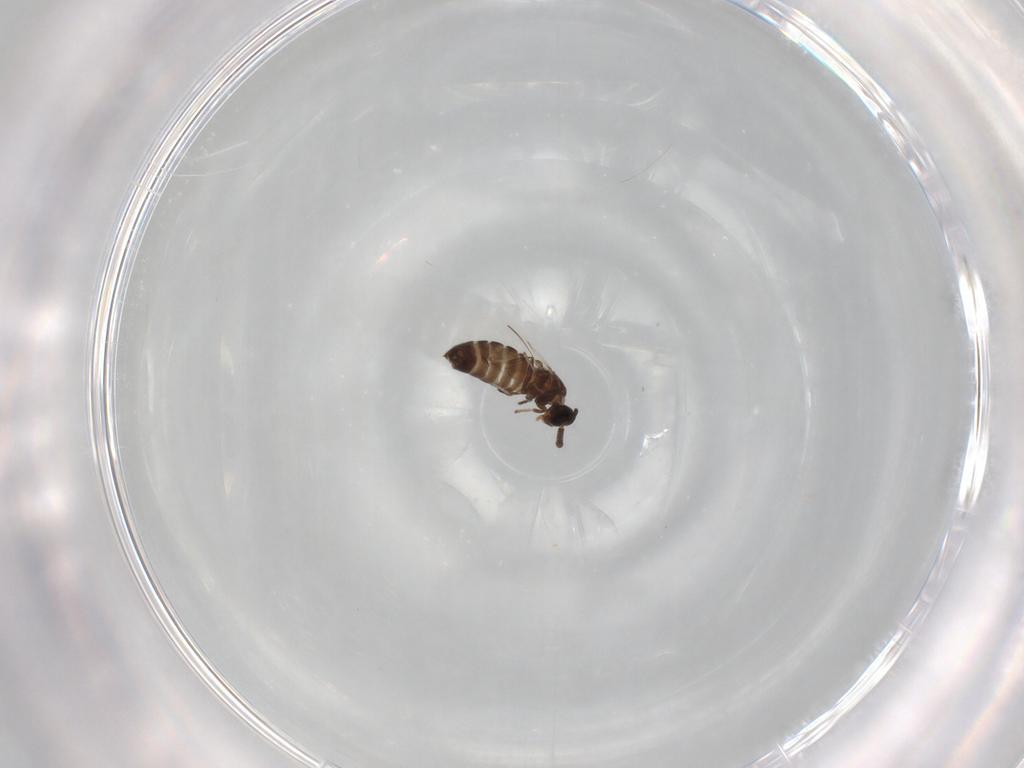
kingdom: Animalia
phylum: Arthropoda
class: Insecta
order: Diptera
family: Scatopsidae
